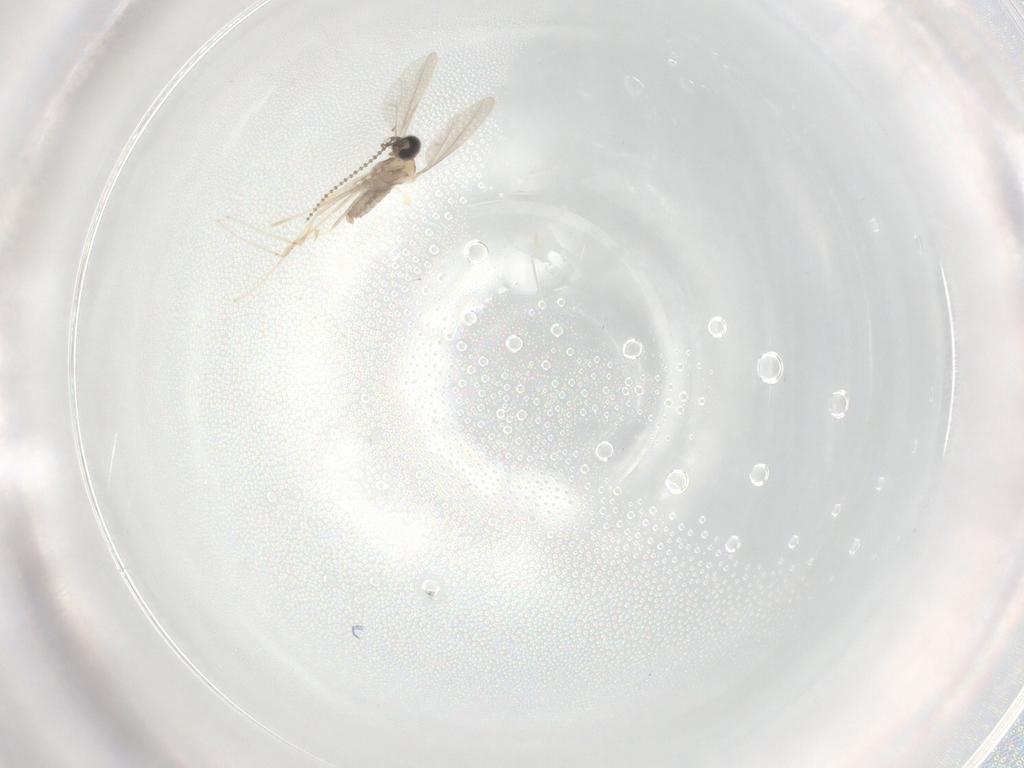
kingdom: Animalia
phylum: Arthropoda
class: Insecta
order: Diptera
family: Cecidomyiidae
